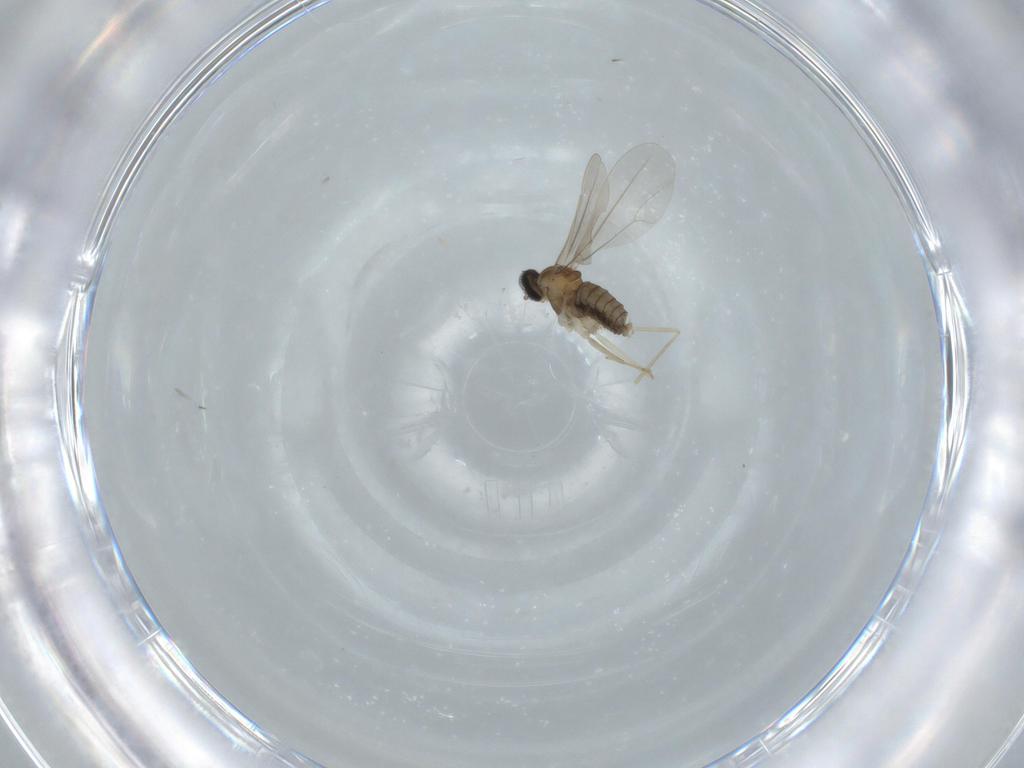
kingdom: Animalia
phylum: Arthropoda
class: Insecta
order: Diptera
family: Cecidomyiidae
